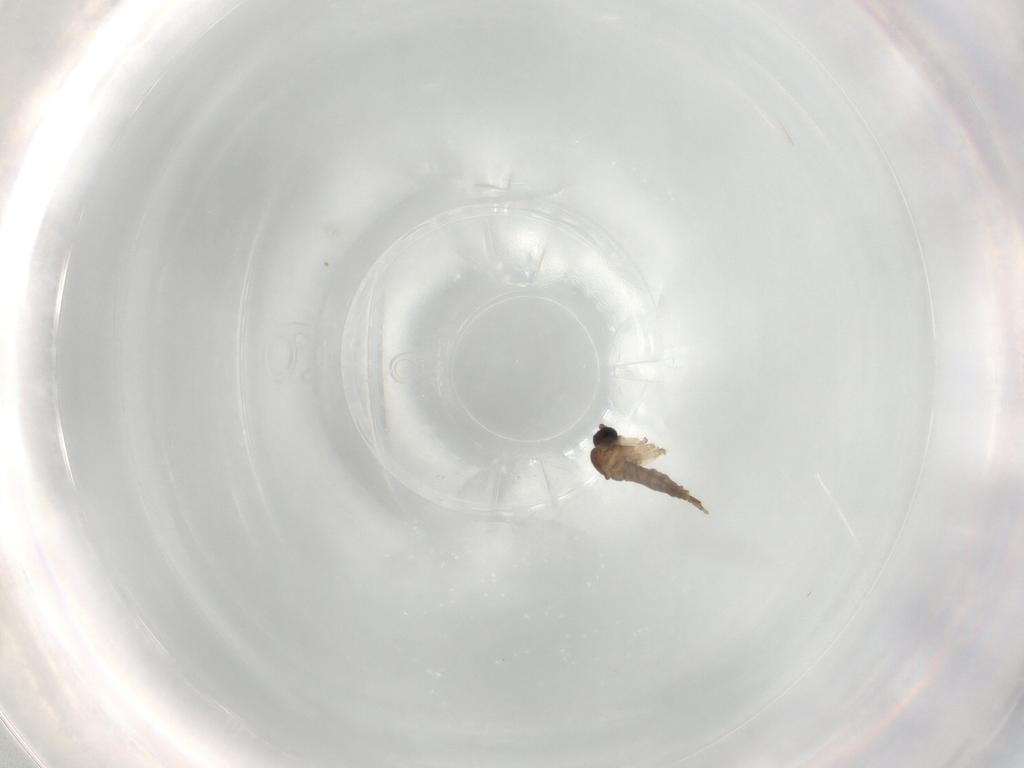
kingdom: Animalia
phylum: Arthropoda
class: Insecta
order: Diptera
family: Sciaridae
